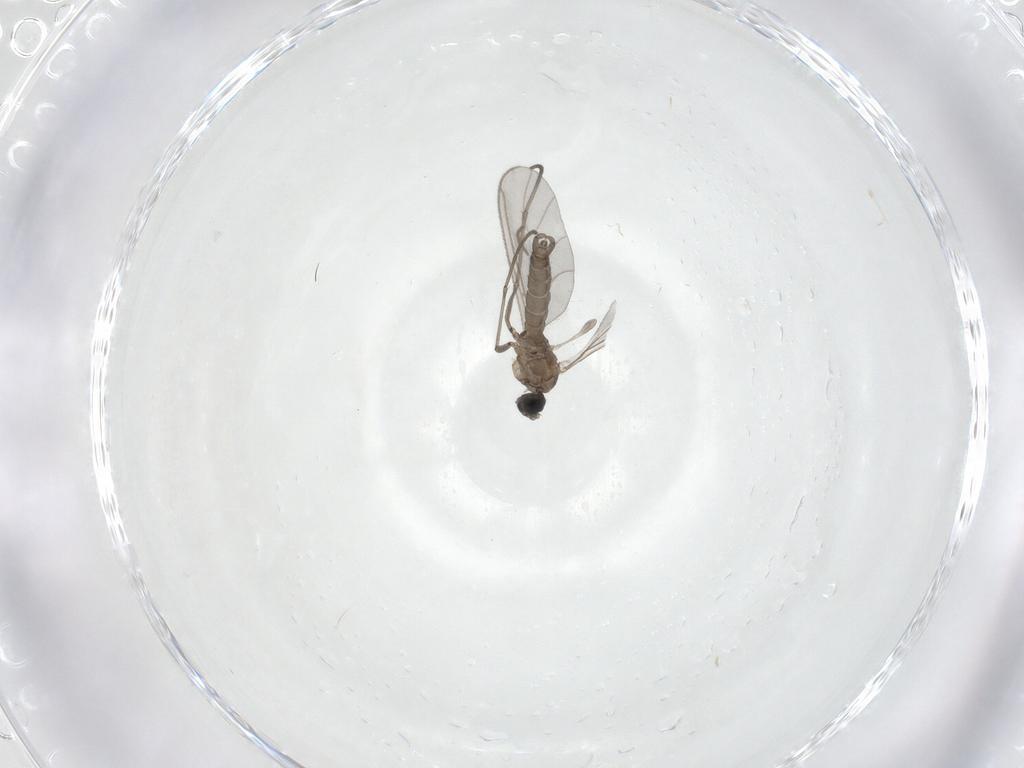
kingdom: Animalia
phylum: Arthropoda
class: Insecta
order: Diptera
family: Sciaridae
